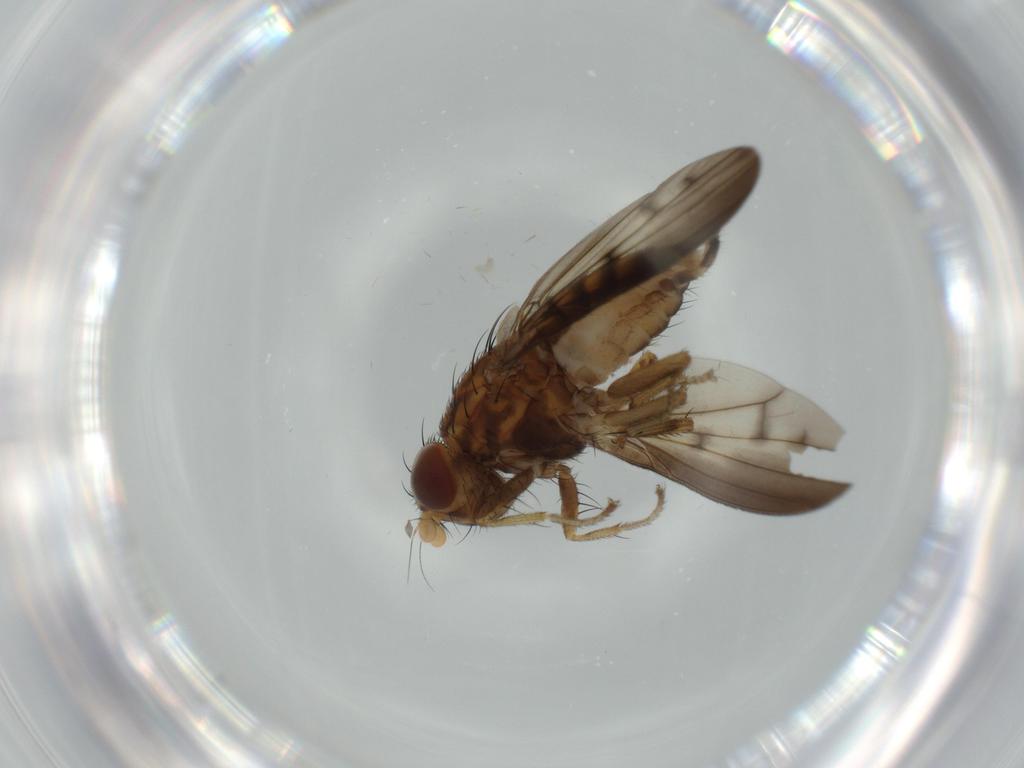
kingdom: Animalia
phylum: Arthropoda
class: Insecta
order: Diptera
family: Lauxaniidae
